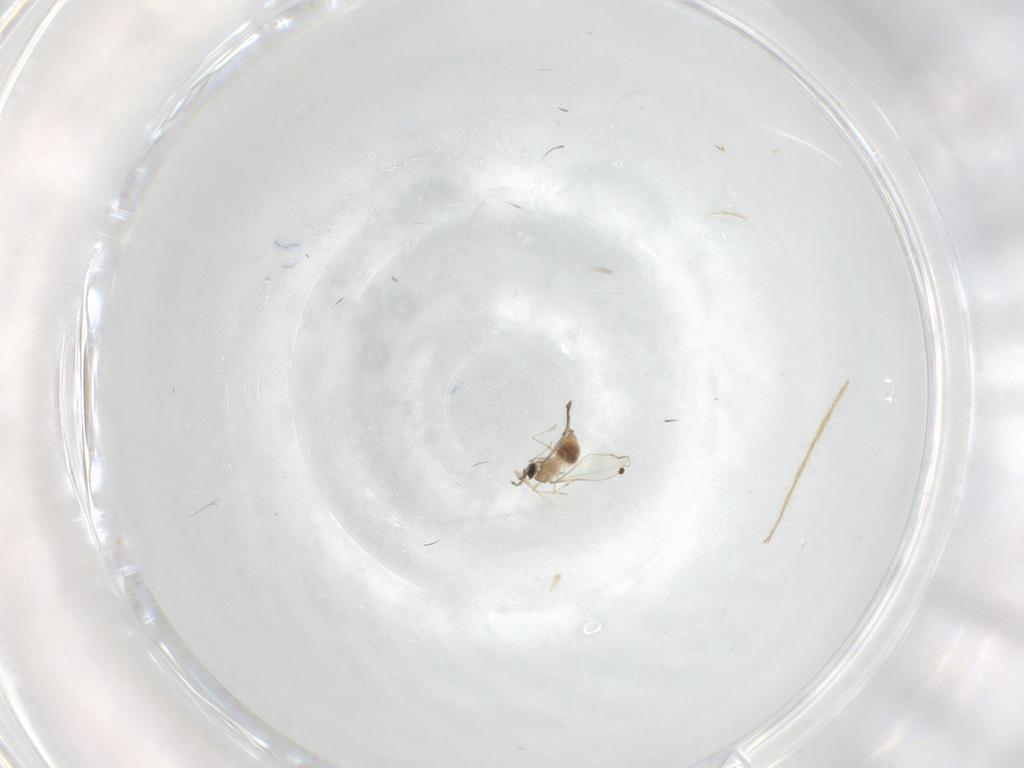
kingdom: Animalia
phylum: Arthropoda
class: Insecta
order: Diptera
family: Cecidomyiidae
